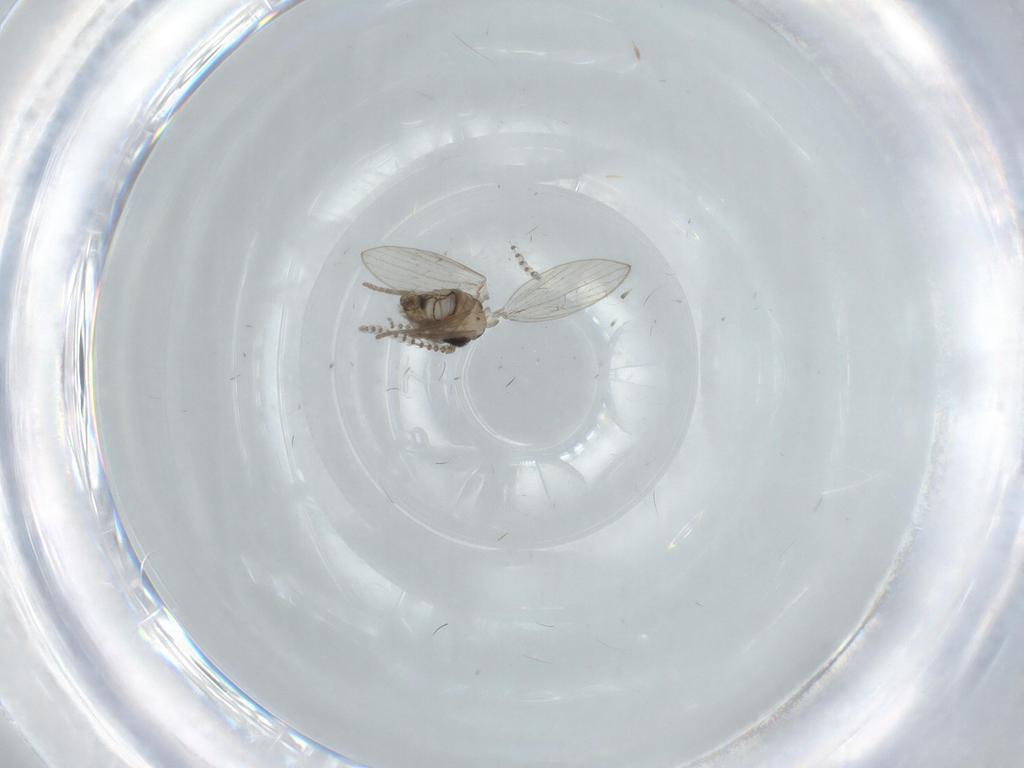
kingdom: Animalia
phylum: Arthropoda
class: Insecta
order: Diptera
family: Psychodidae
